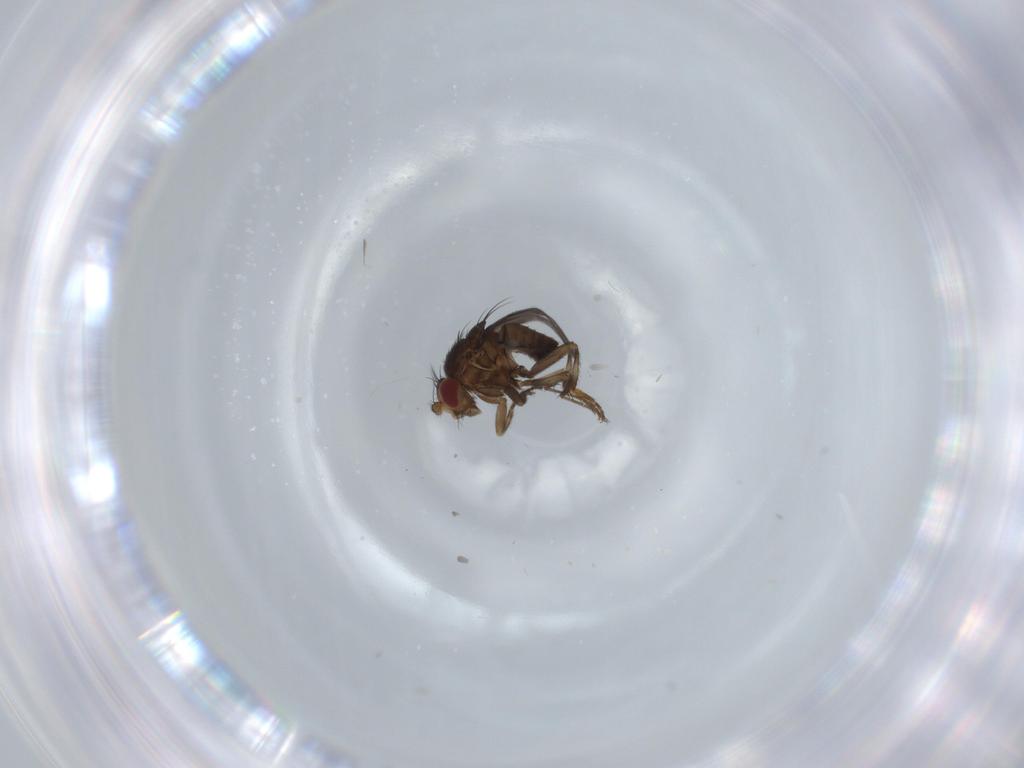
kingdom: Animalia
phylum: Arthropoda
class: Insecta
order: Diptera
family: Sphaeroceridae
